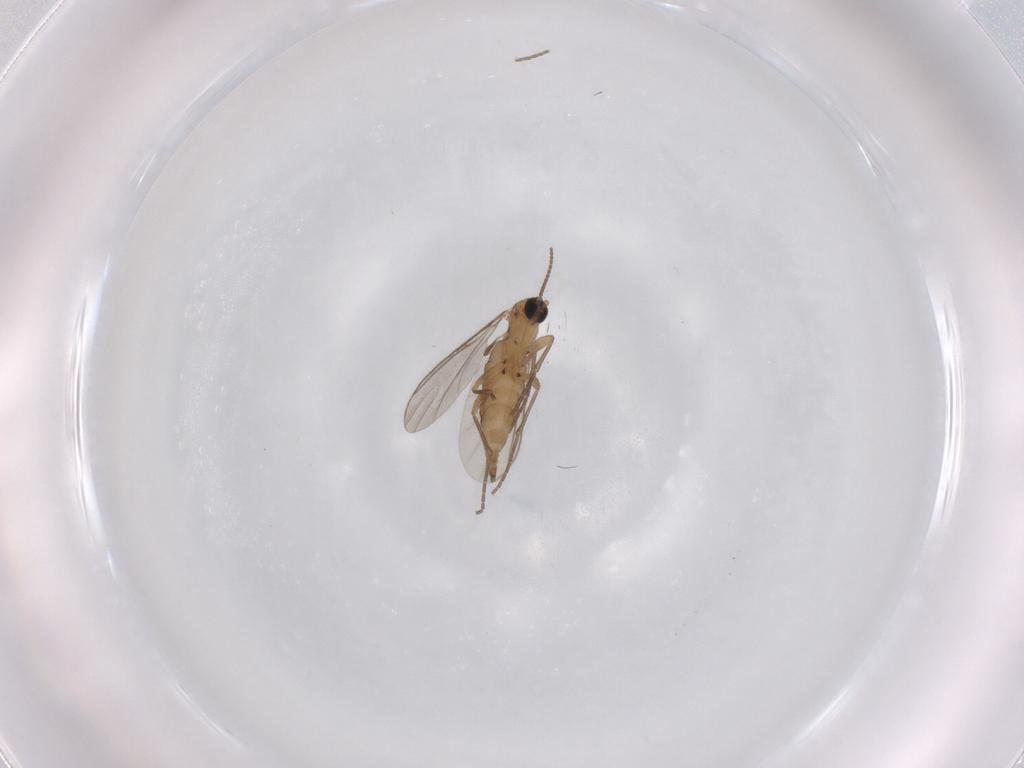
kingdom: Animalia
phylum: Arthropoda
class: Insecta
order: Diptera
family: Sciaridae
